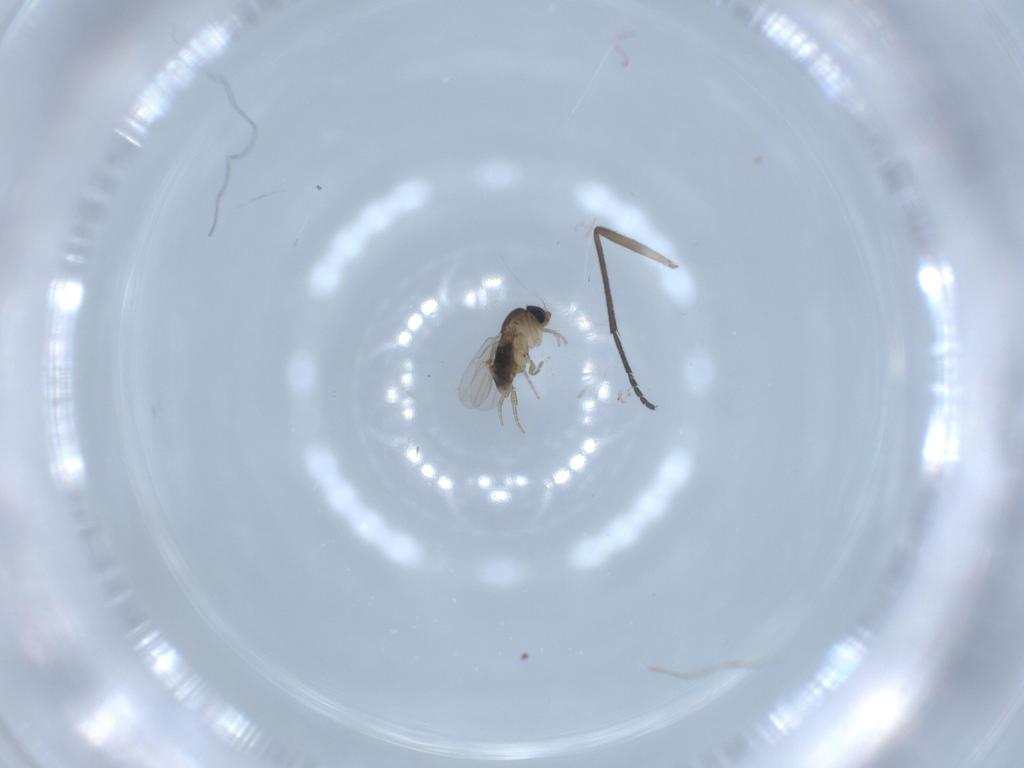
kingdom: Animalia
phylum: Arthropoda
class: Insecta
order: Diptera
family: Phoridae
